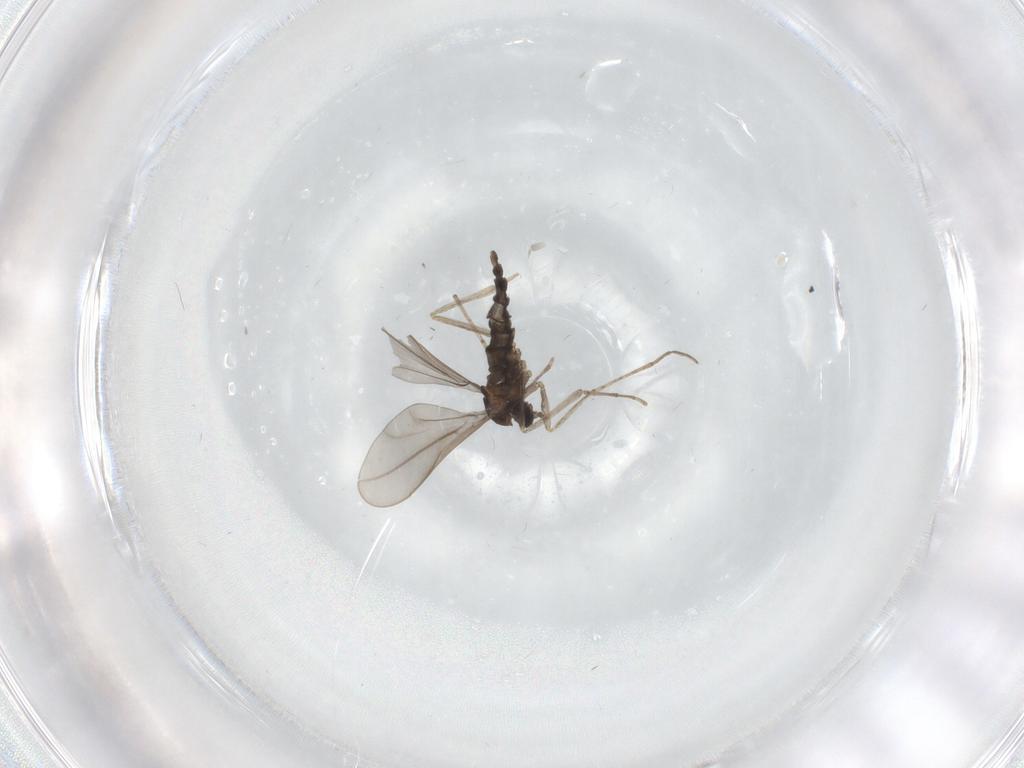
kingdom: Animalia
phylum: Arthropoda
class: Insecta
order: Diptera
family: Cecidomyiidae
